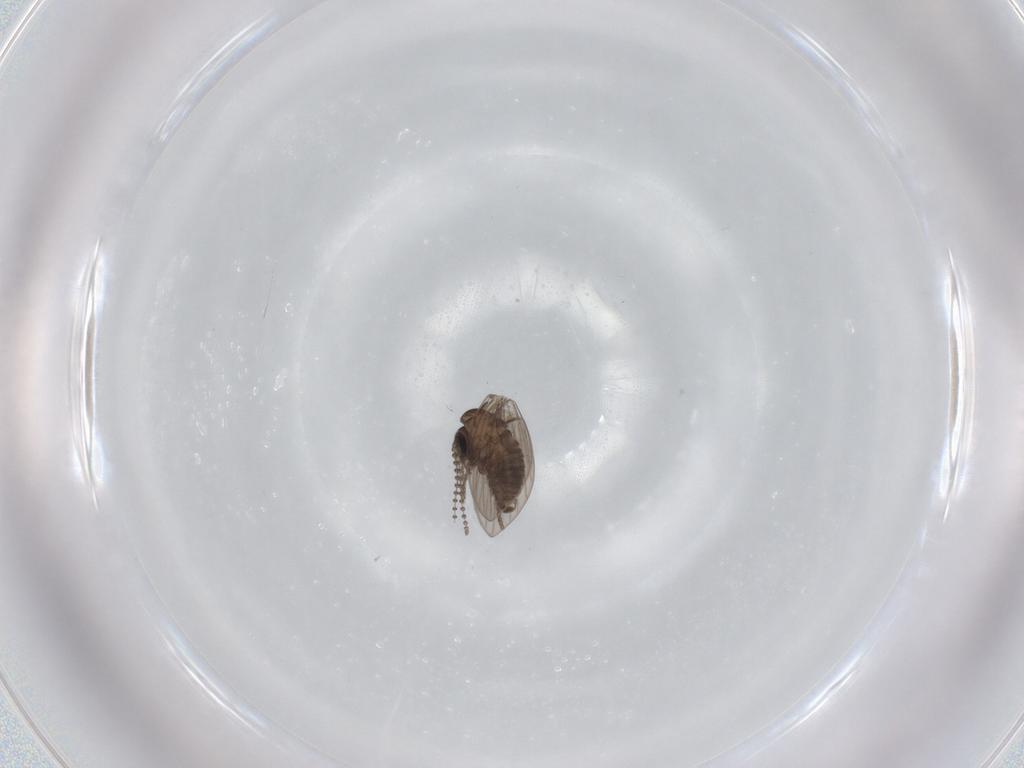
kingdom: Animalia
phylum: Arthropoda
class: Insecta
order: Diptera
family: Psychodidae
